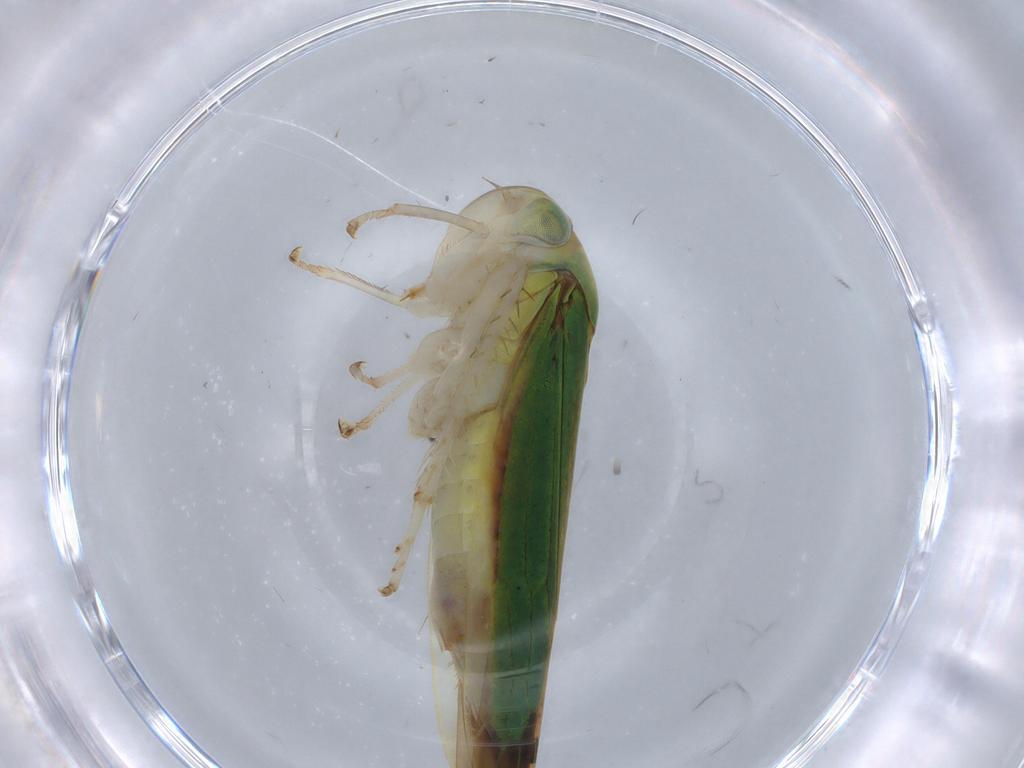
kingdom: Animalia
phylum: Arthropoda
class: Insecta
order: Hemiptera
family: Cicadellidae
